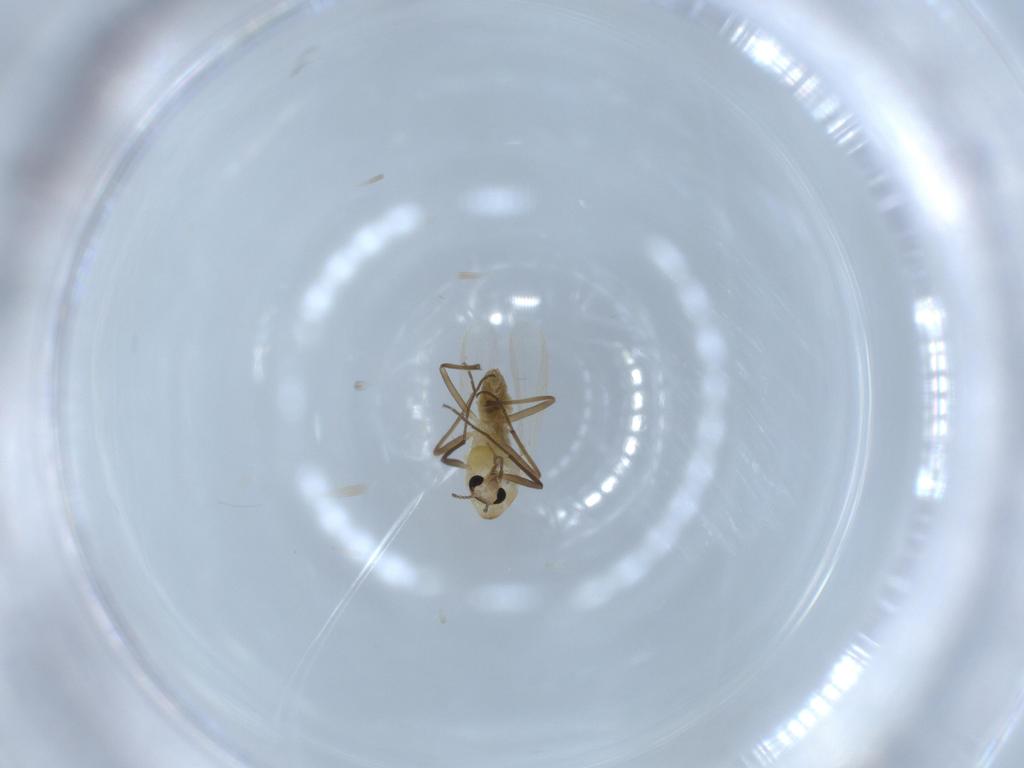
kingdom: Animalia
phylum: Arthropoda
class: Insecta
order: Diptera
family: Chironomidae
